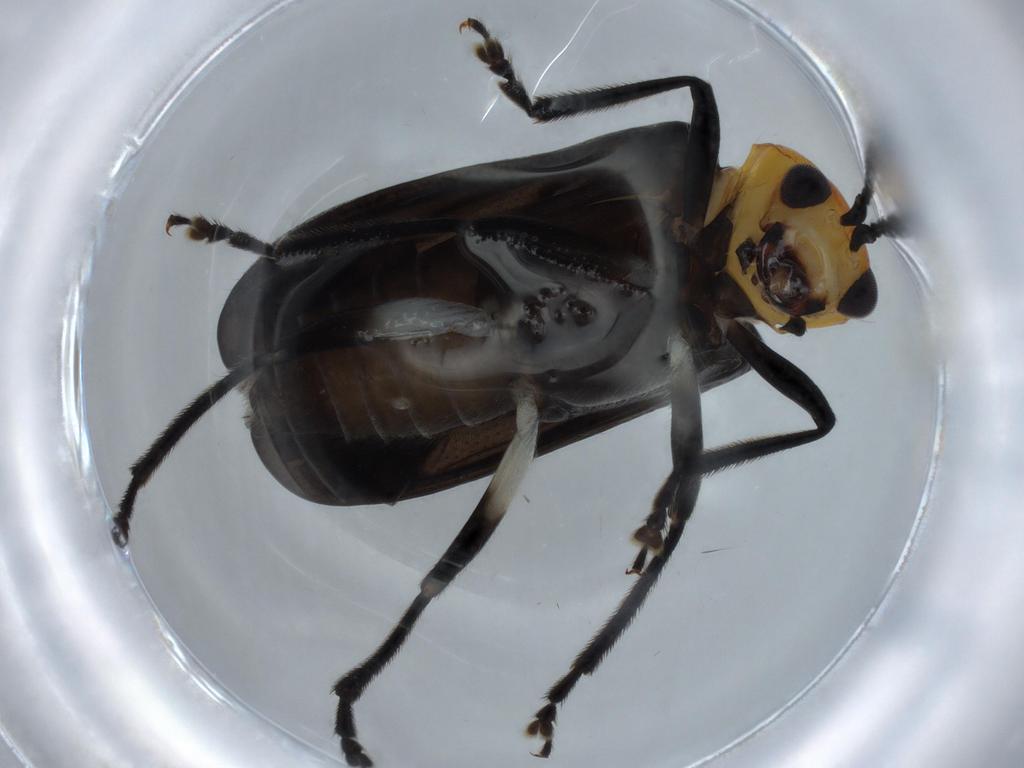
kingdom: Animalia
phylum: Arthropoda
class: Insecta
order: Coleoptera
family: Chrysomelidae
